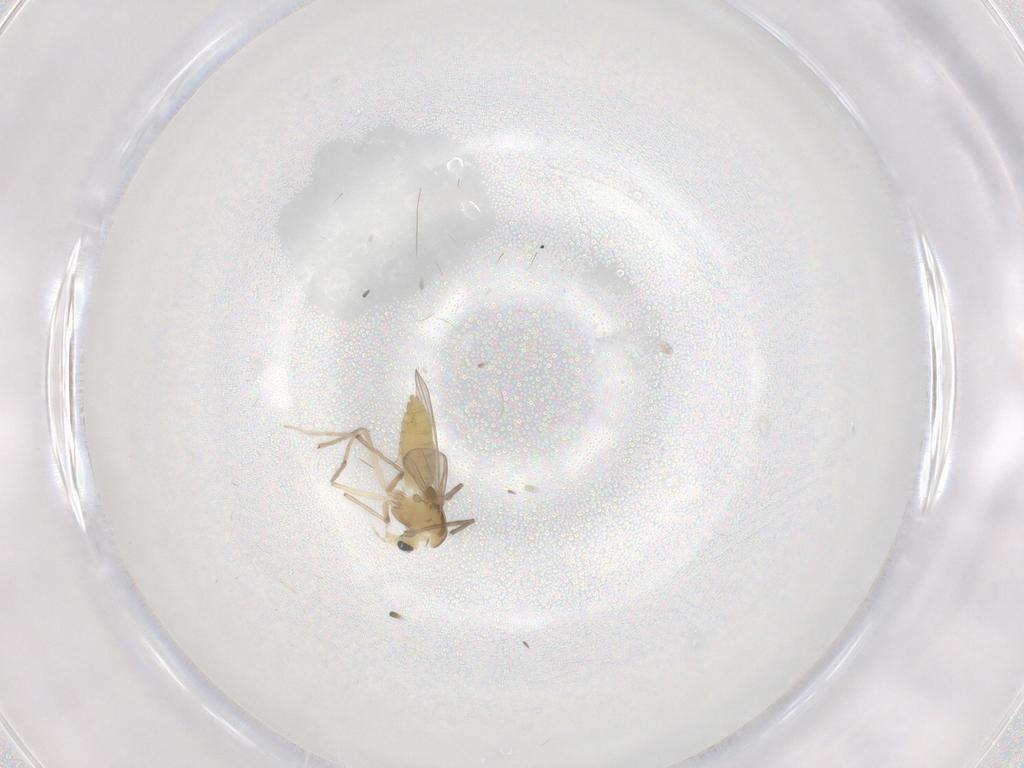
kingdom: Animalia
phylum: Arthropoda
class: Insecta
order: Diptera
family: Chironomidae
